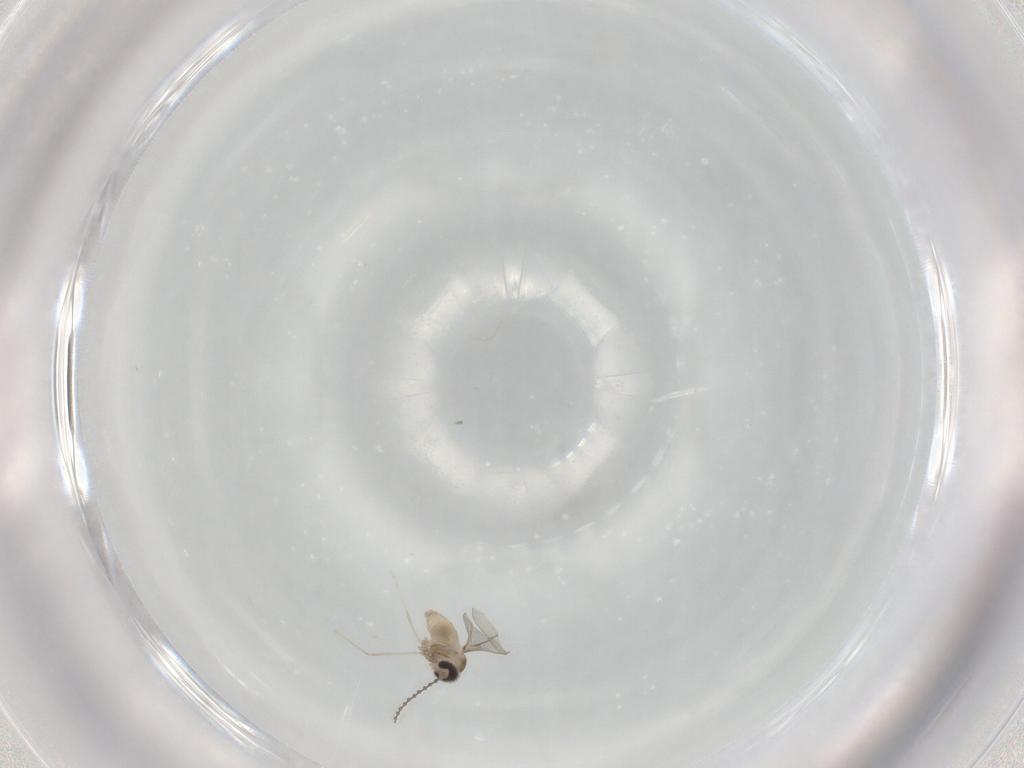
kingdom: Animalia
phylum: Arthropoda
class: Insecta
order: Diptera
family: Cecidomyiidae
